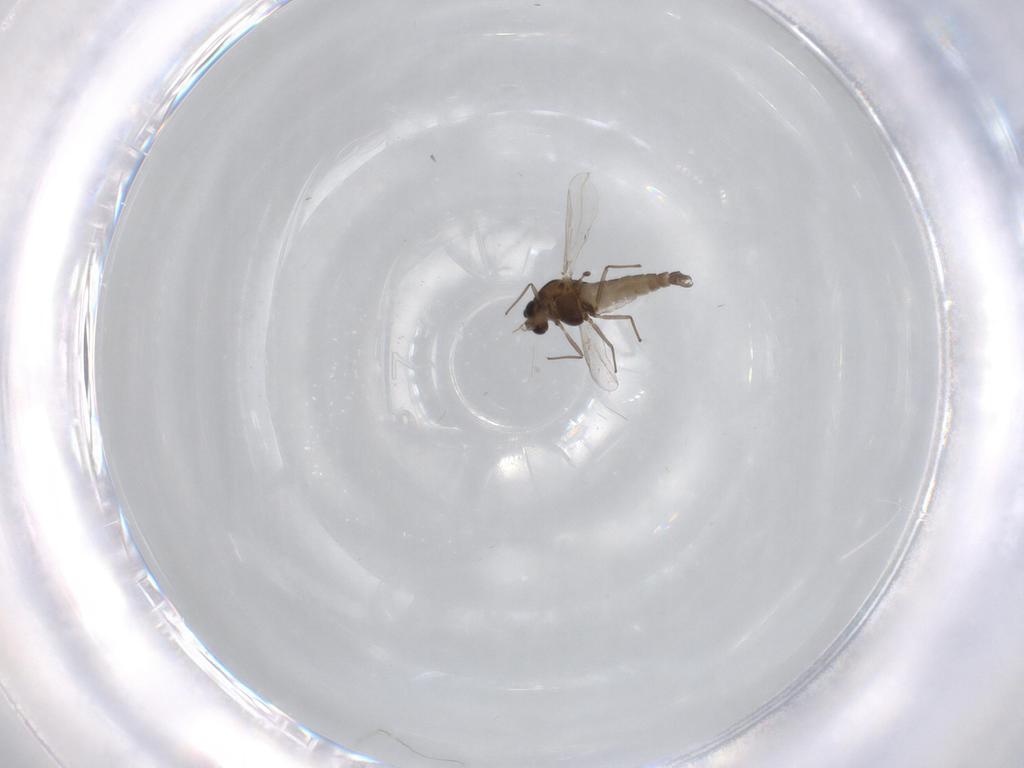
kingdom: Animalia
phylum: Arthropoda
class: Insecta
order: Diptera
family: Chironomidae
